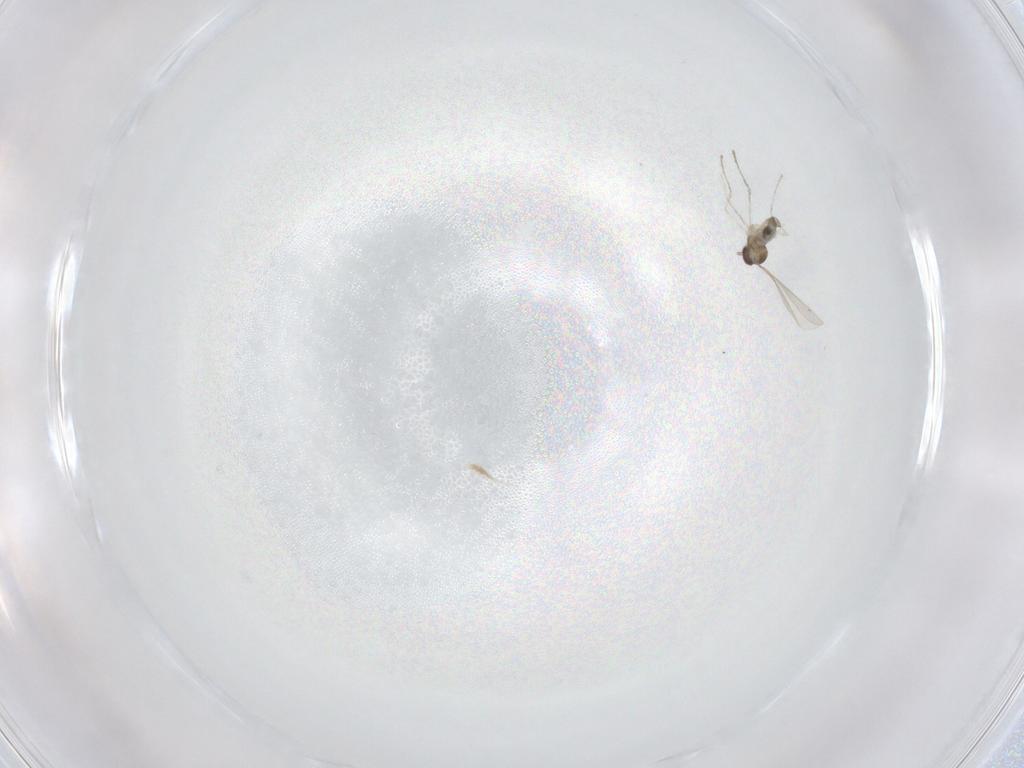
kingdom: Animalia
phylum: Arthropoda
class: Insecta
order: Diptera
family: Cecidomyiidae
